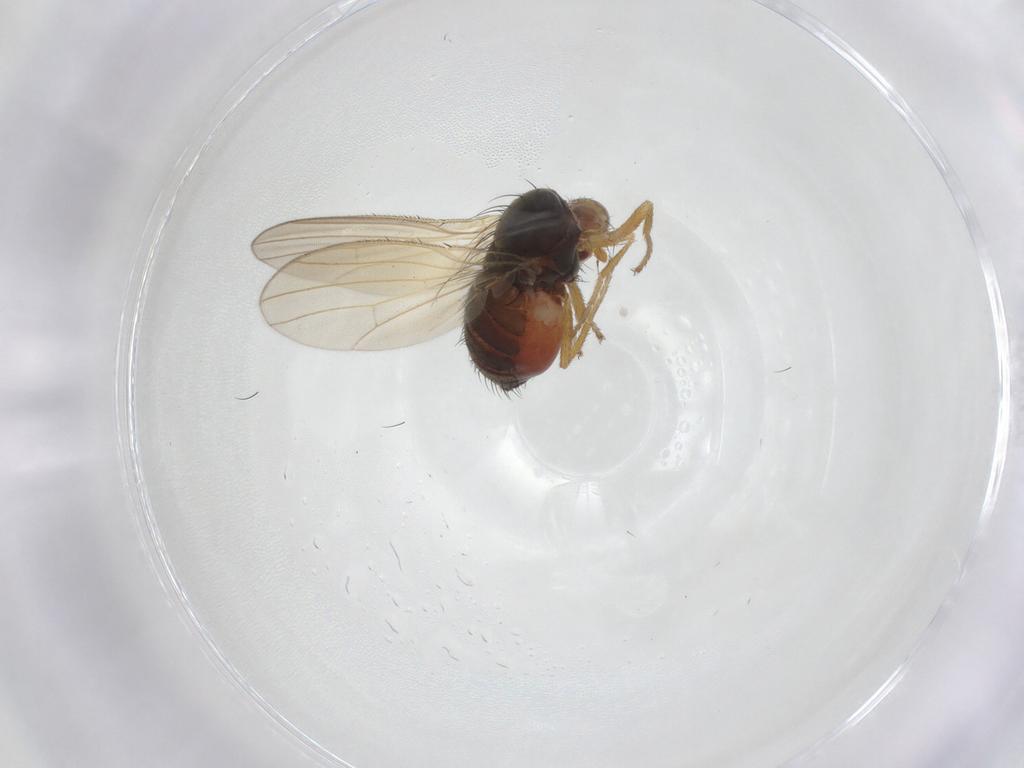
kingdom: Animalia
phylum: Arthropoda
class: Insecta
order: Diptera
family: Heleomyzidae
